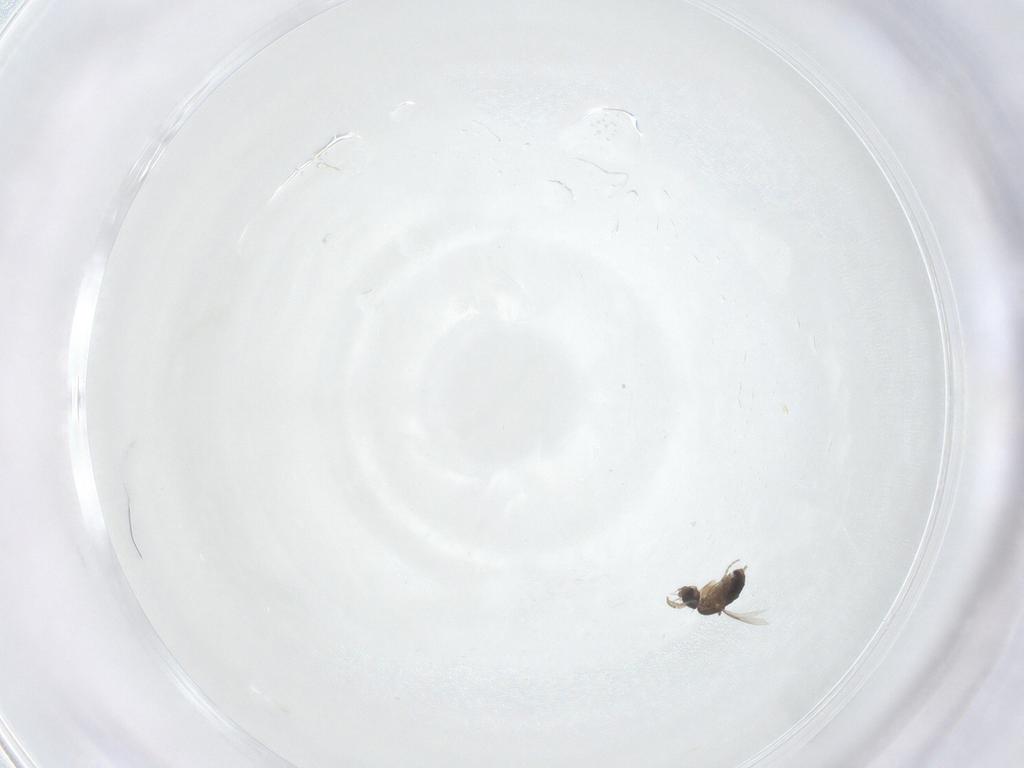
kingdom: Animalia
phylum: Arthropoda
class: Insecta
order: Diptera
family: Phoridae
